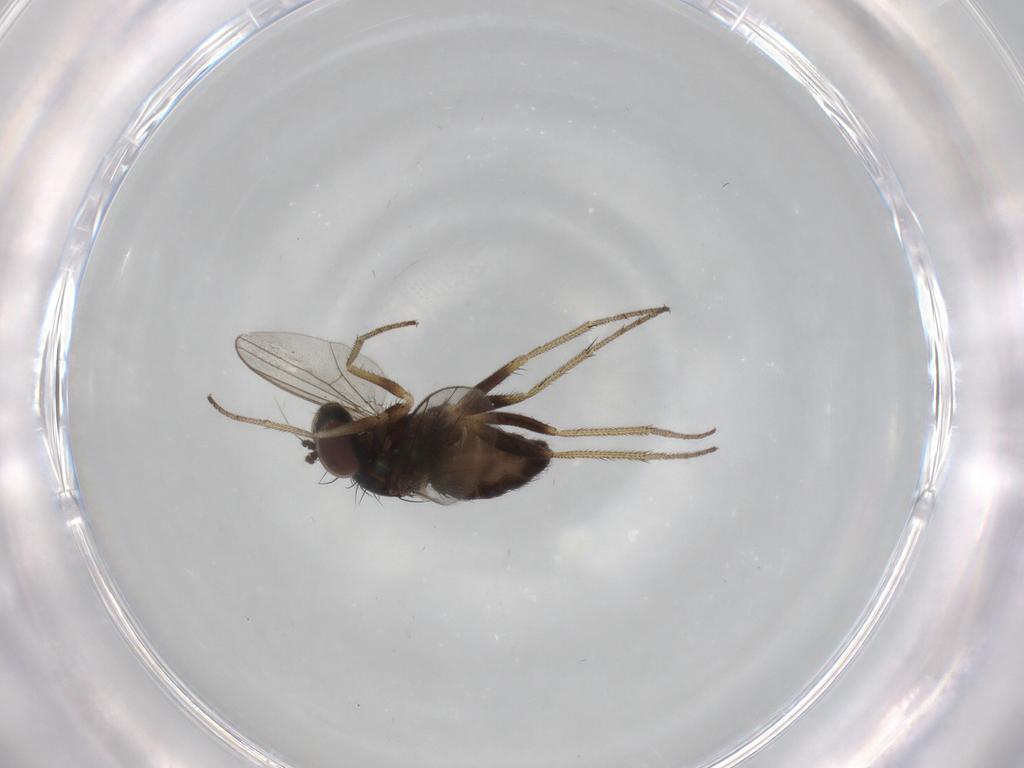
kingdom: Animalia
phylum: Arthropoda
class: Insecta
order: Diptera
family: Dolichopodidae
